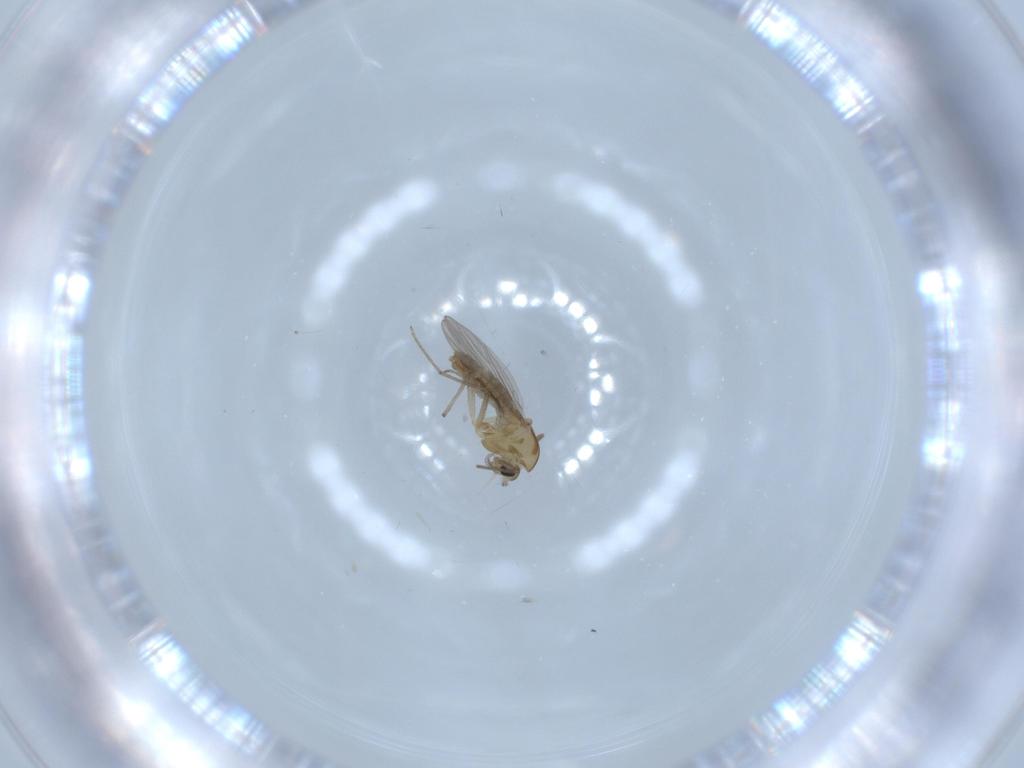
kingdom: Animalia
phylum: Arthropoda
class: Insecta
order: Diptera
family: Chironomidae
